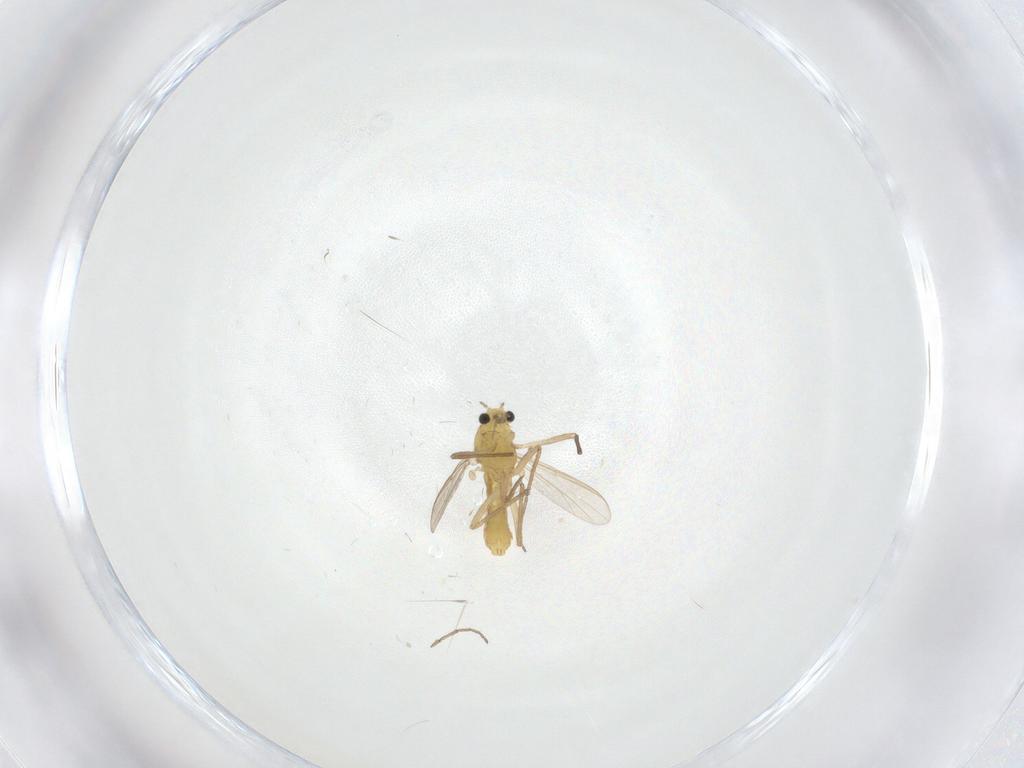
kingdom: Animalia
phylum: Arthropoda
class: Insecta
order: Diptera
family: Chironomidae
